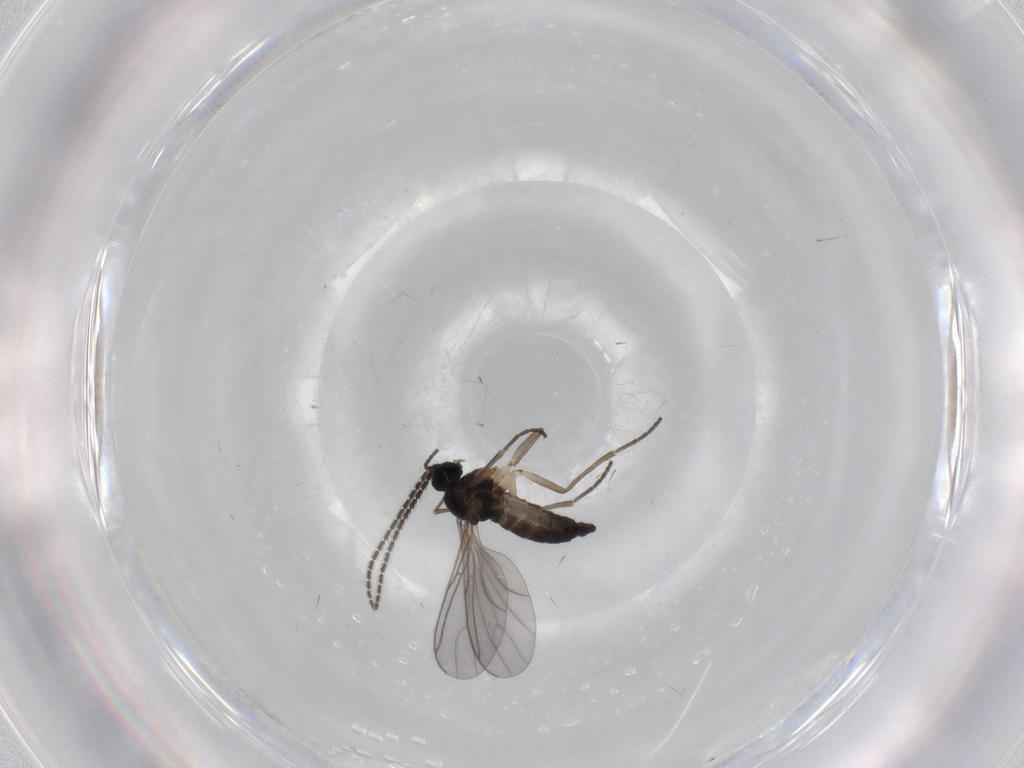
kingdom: Animalia
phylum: Arthropoda
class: Insecta
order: Diptera
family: Sciaridae
